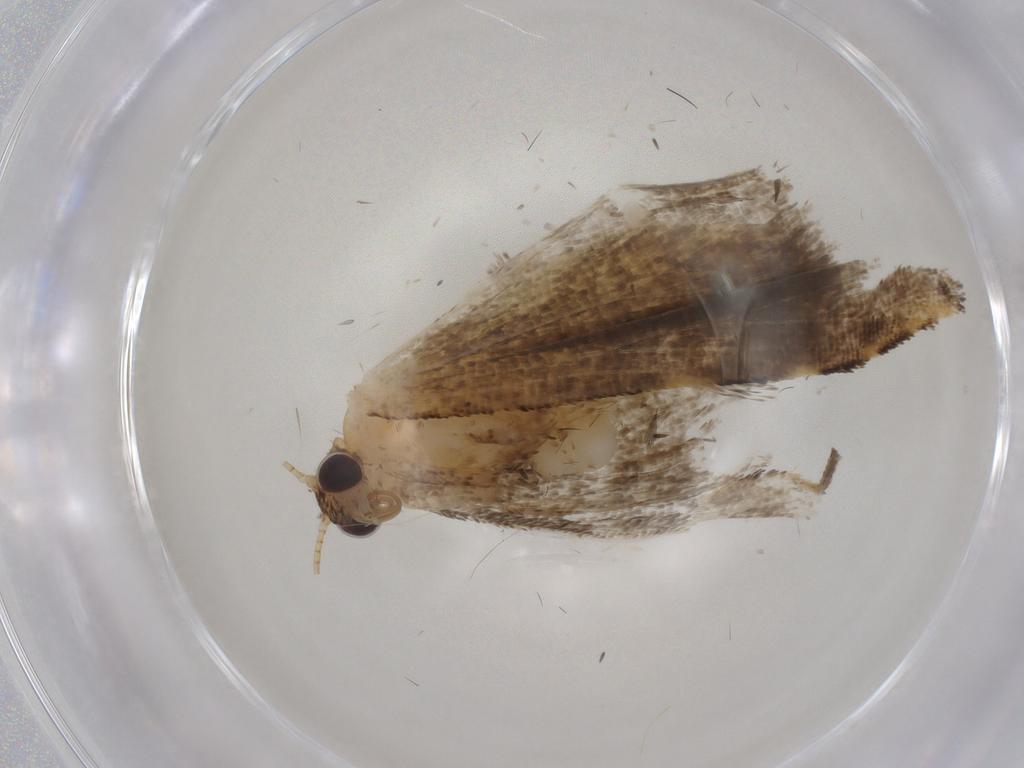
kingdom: Animalia
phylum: Arthropoda
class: Insecta
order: Lepidoptera
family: Geometridae
